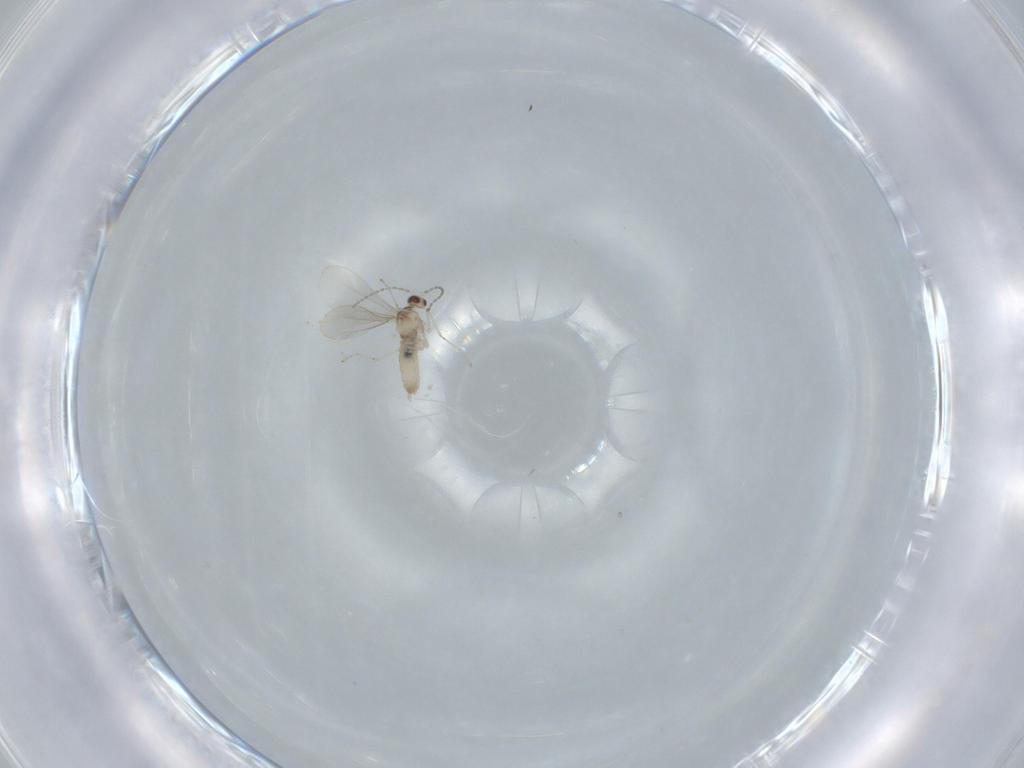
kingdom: Animalia
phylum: Arthropoda
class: Insecta
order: Diptera
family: Cecidomyiidae
